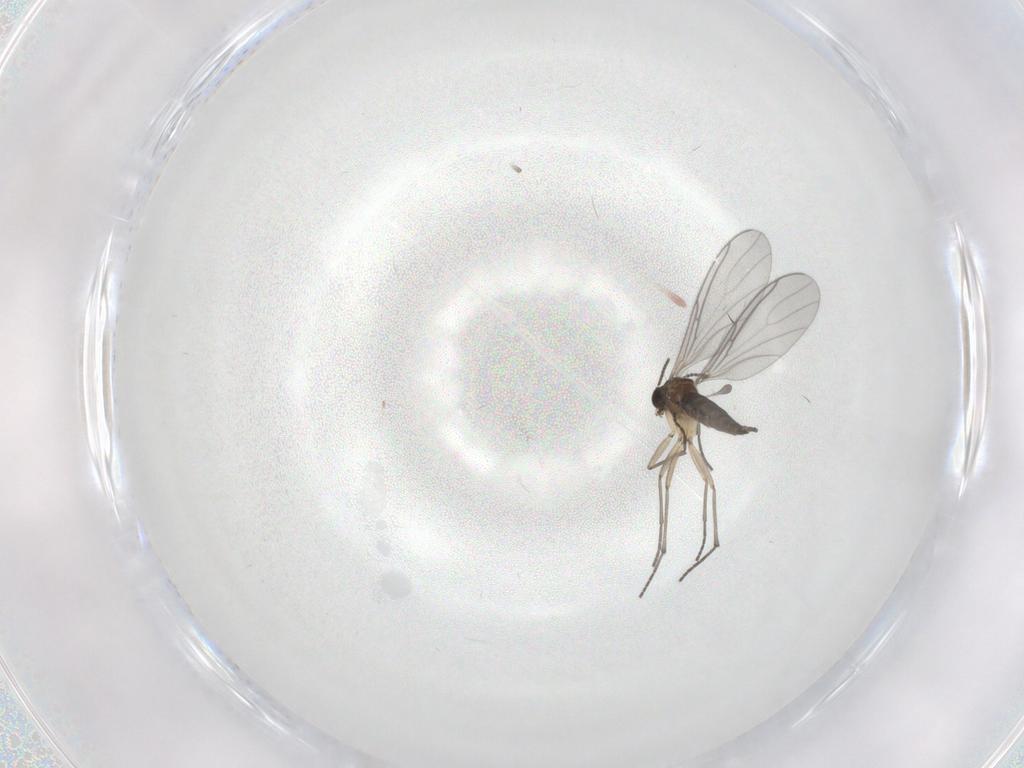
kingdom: Animalia
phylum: Arthropoda
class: Insecta
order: Diptera
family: Sciaridae
